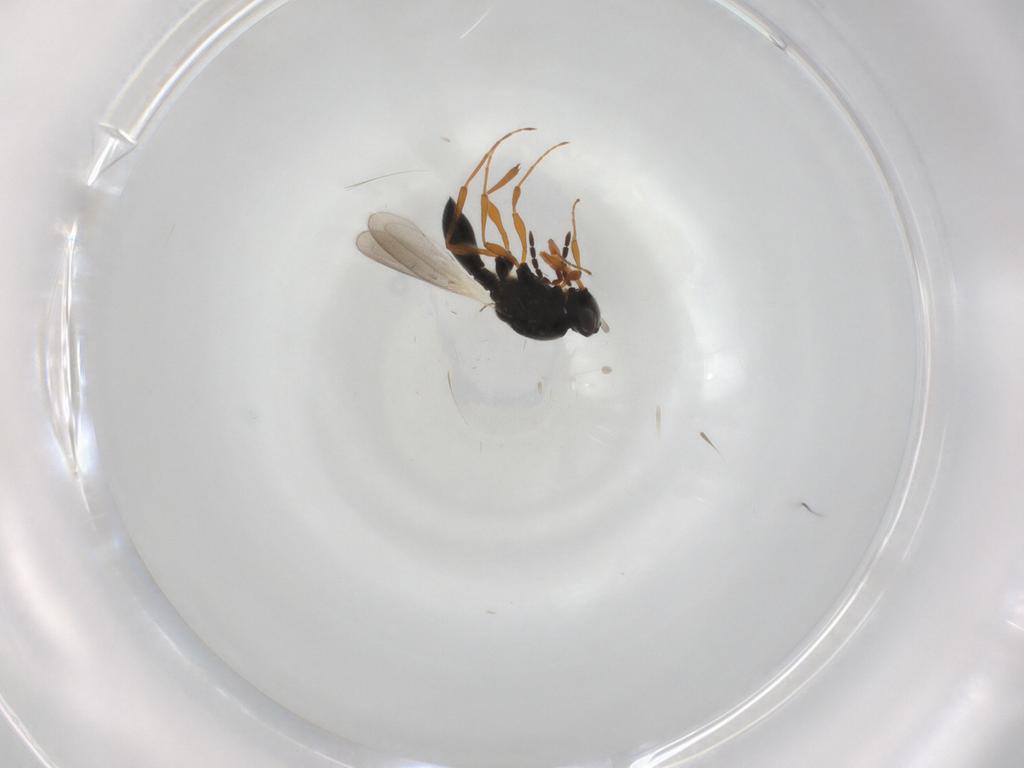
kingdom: Animalia
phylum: Arthropoda
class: Insecta
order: Hymenoptera
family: Platygastridae
